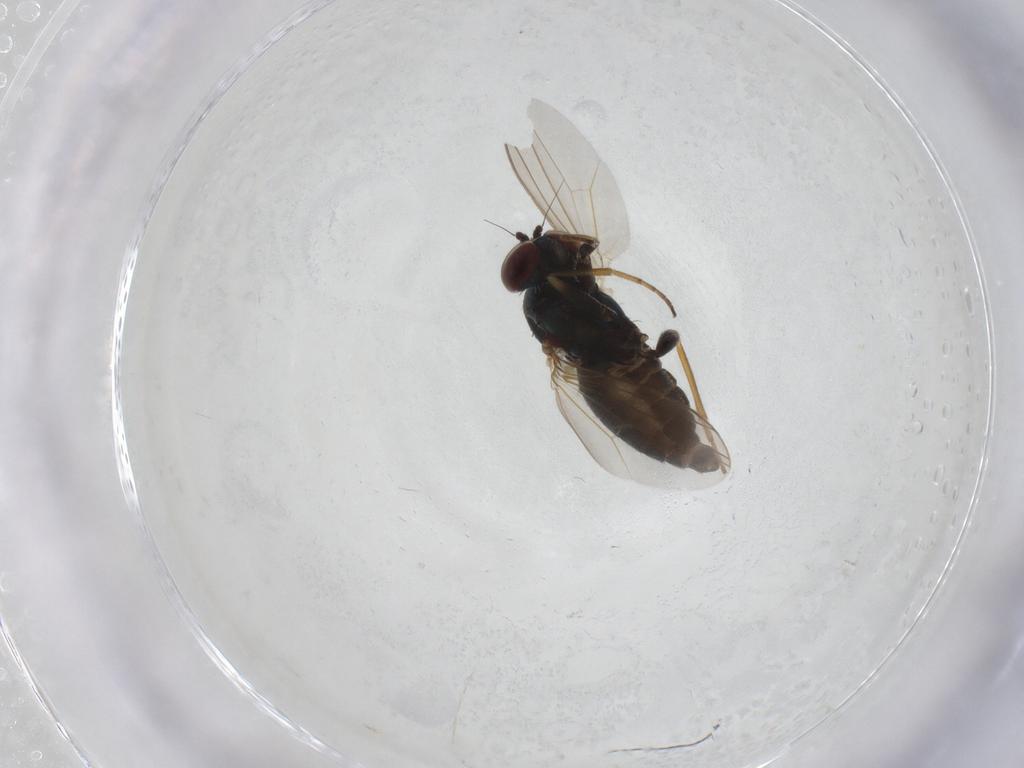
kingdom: Animalia
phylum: Arthropoda
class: Insecta
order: Diptera
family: Dolichopodidae
